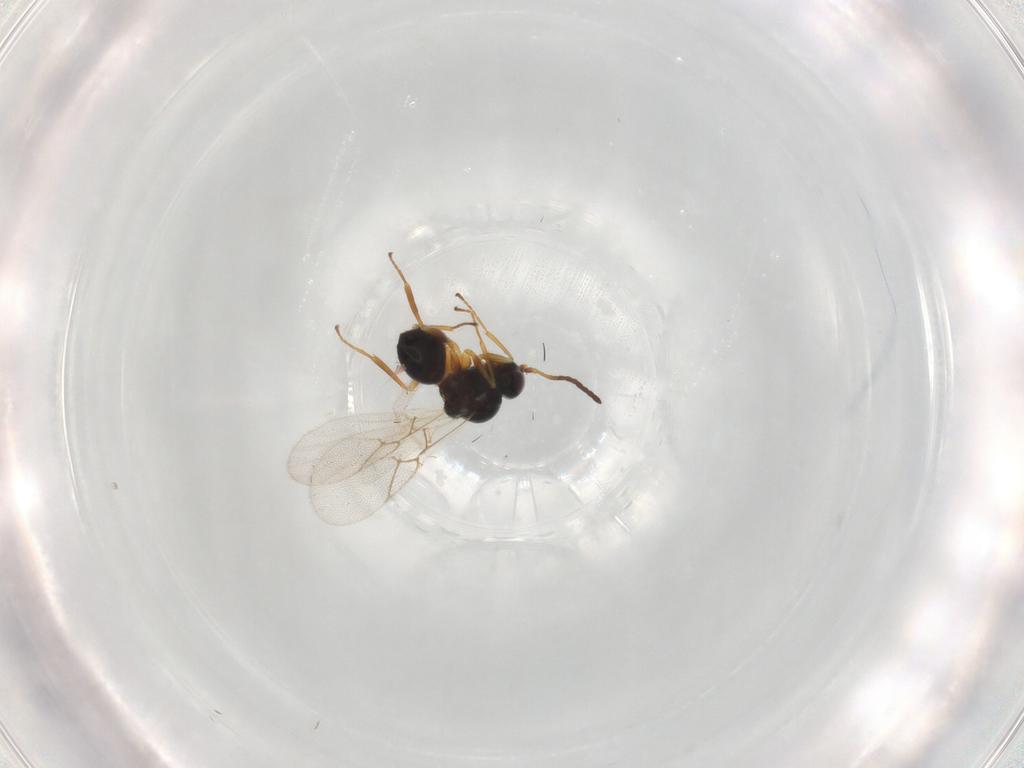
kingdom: Animalia
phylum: Arthropoda
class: Insecta
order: Hymenoptera
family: Figitidae
